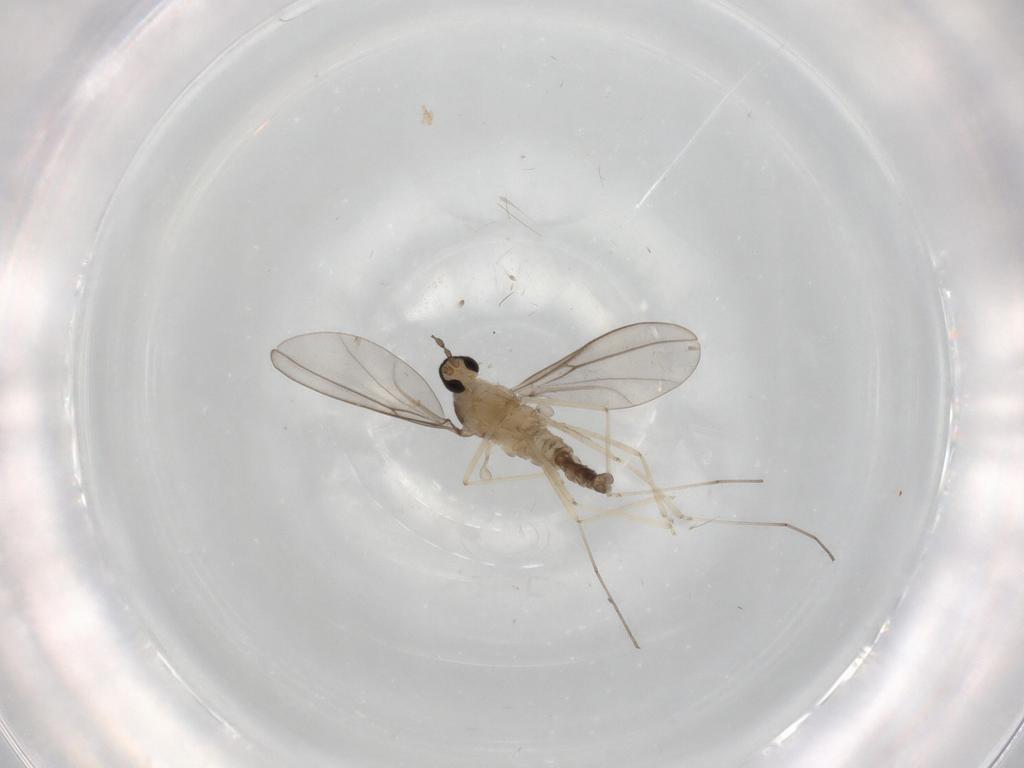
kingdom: Animalia
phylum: Arthropoda
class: Insecta
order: Diptera
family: Cecidomyiidae
